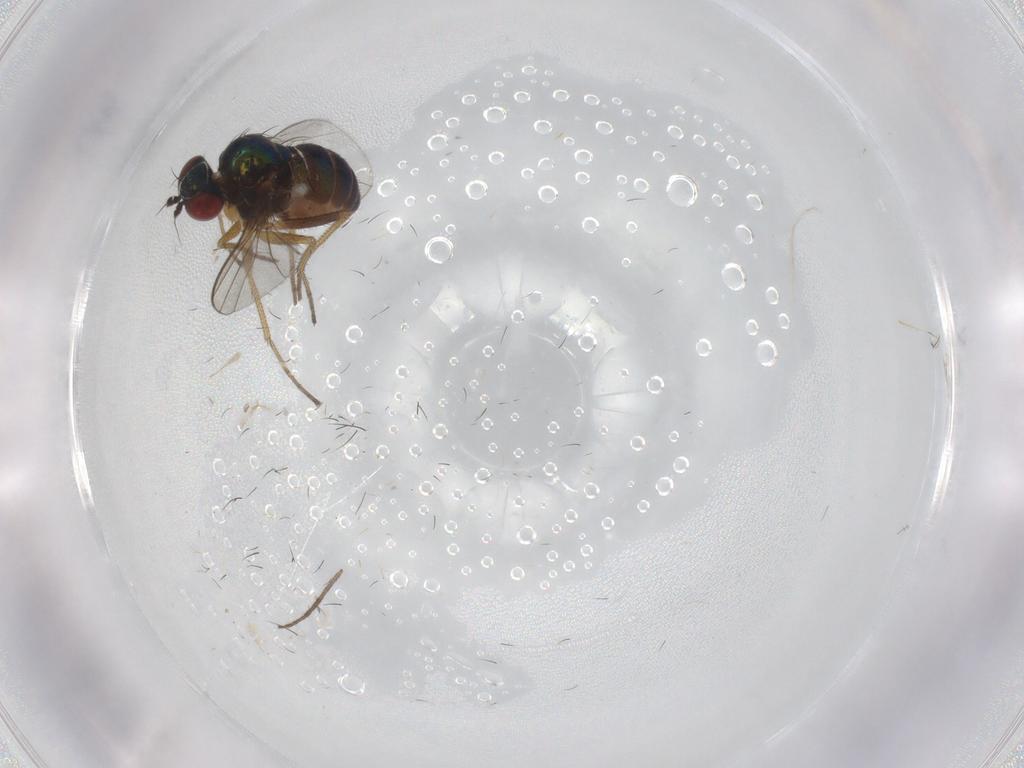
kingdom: Animalia
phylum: Arthropoda
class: Insecta
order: Diptera
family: Dolichopodidae
